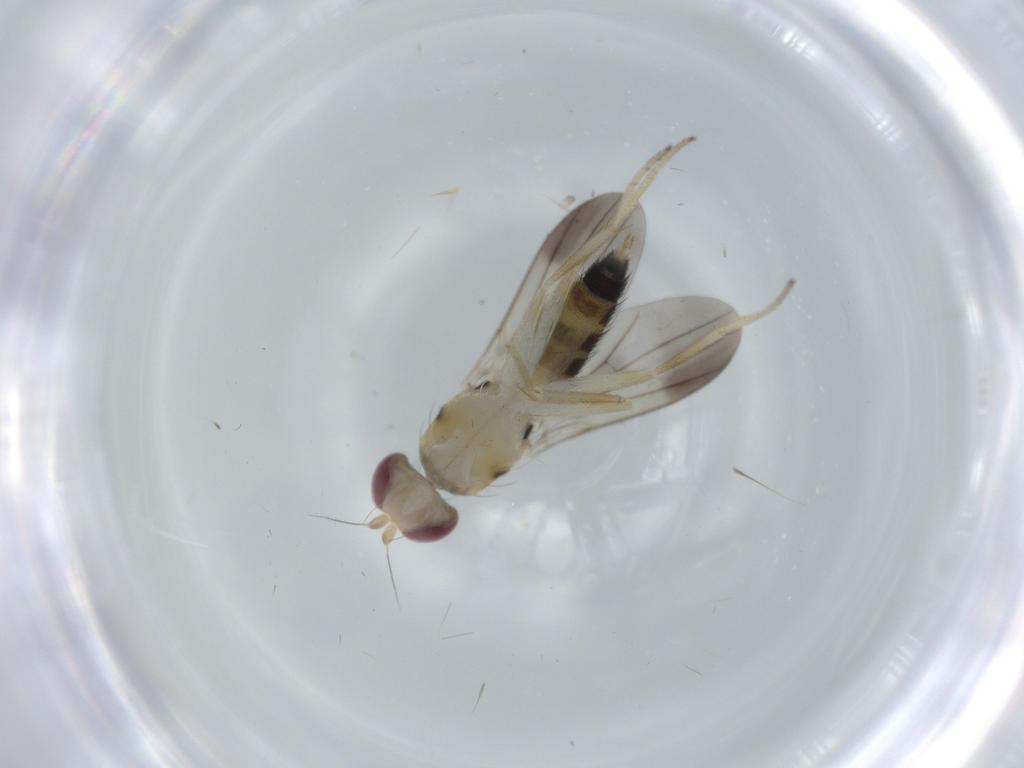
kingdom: Animalia
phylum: Arthropoda
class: Insecta
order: Diptera
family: Clusiidae
